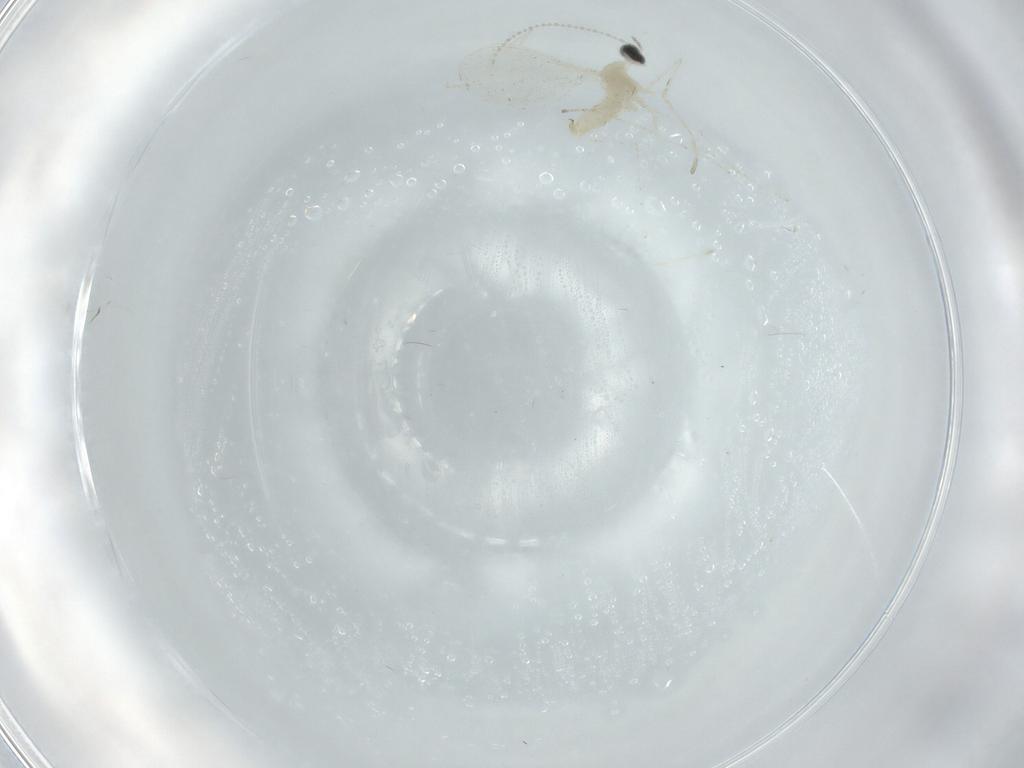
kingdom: Animalia
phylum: Arthropoda
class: Insecta
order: Diptera
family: Cecidomyiidae
